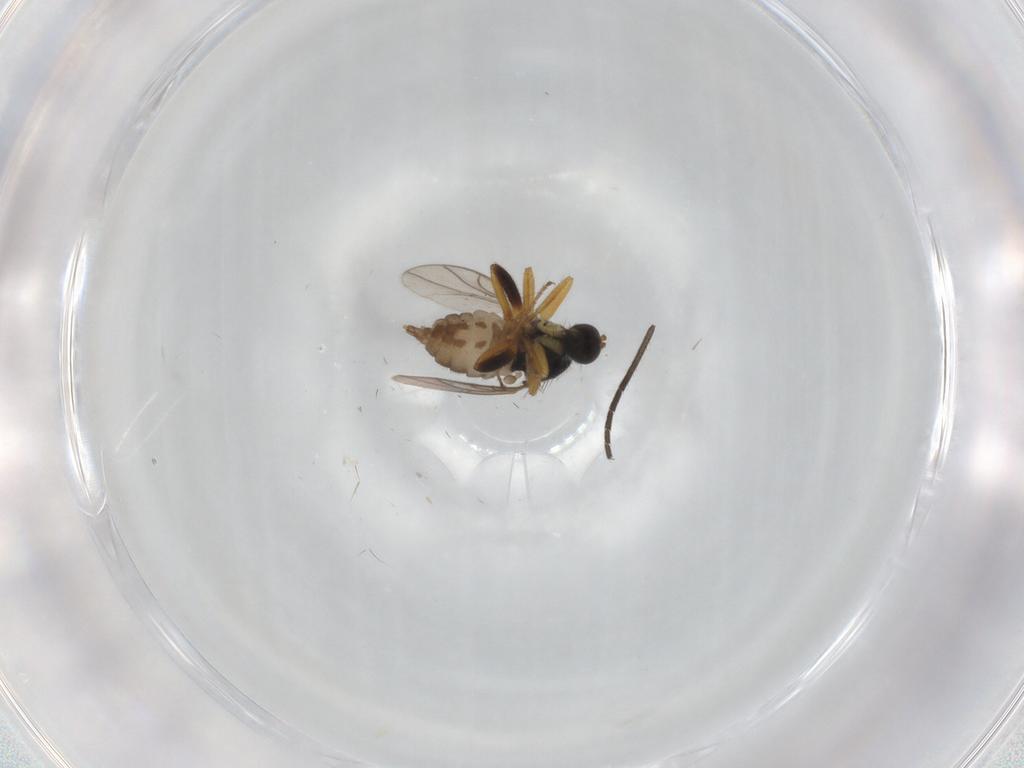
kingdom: Animalia
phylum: Arthropoda
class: Insecta
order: Diptera
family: Hybotidae
